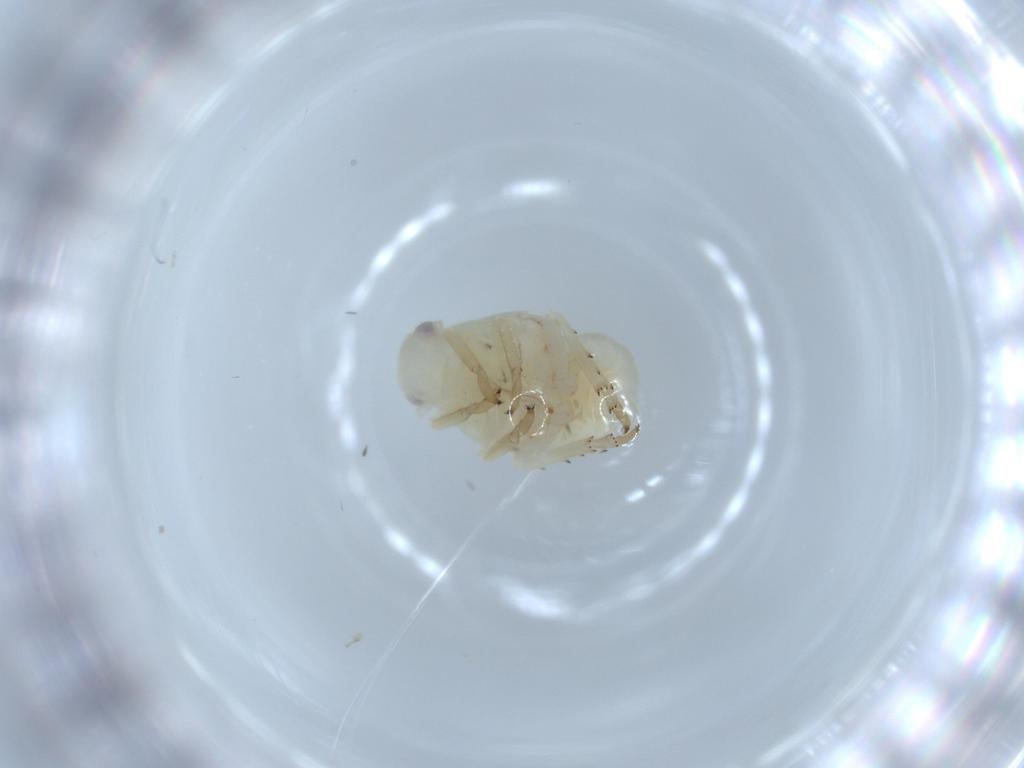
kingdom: Animalia
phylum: Arthropoda
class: Insecta
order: Hemiptera
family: Flatidae
